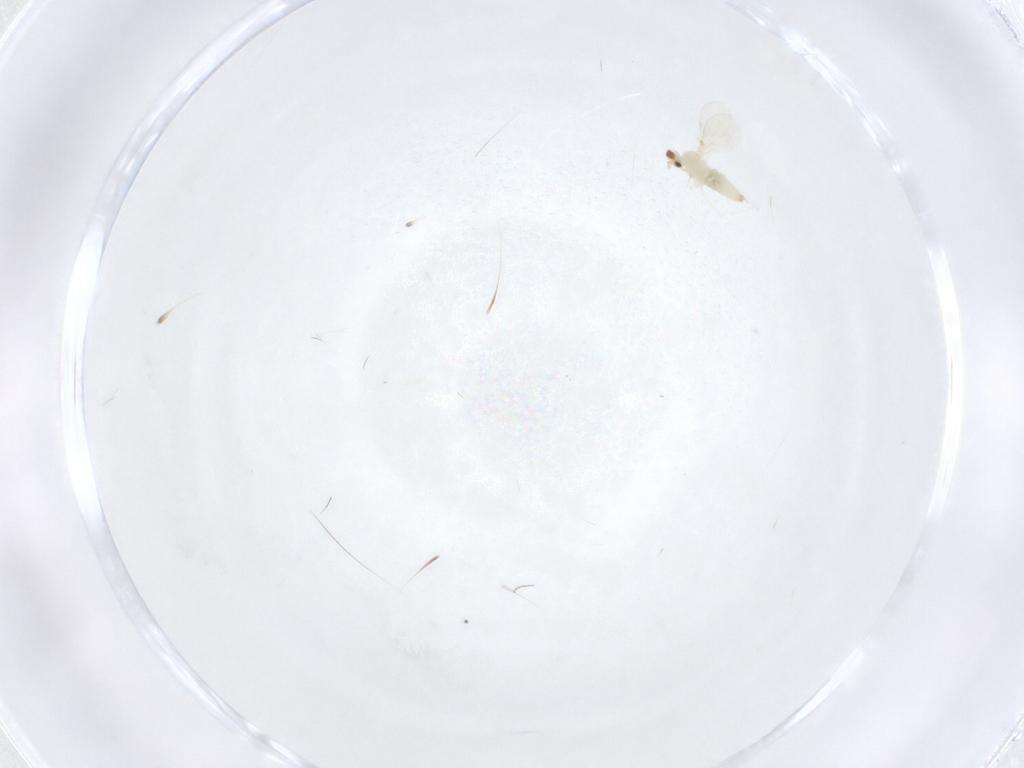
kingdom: Animalia
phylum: Arthropoda
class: Insecta
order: Diptera
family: Cecidomyiidae
